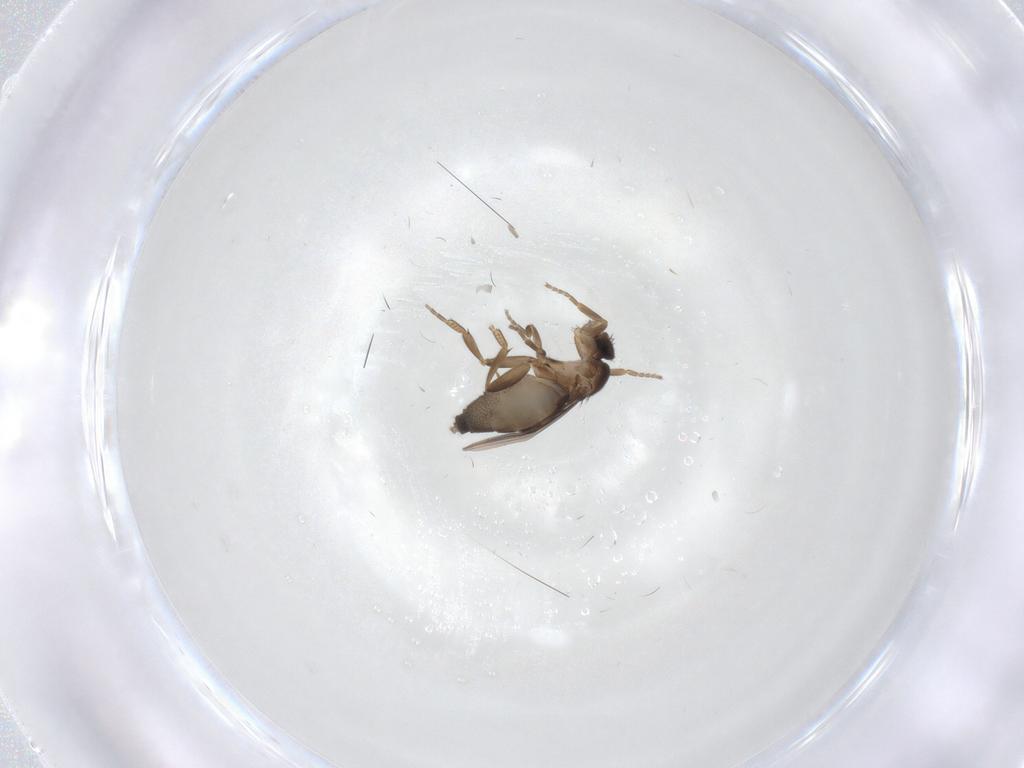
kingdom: Animalia
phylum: Arthropoda
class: Insecta
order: Diptera
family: Phoridae
